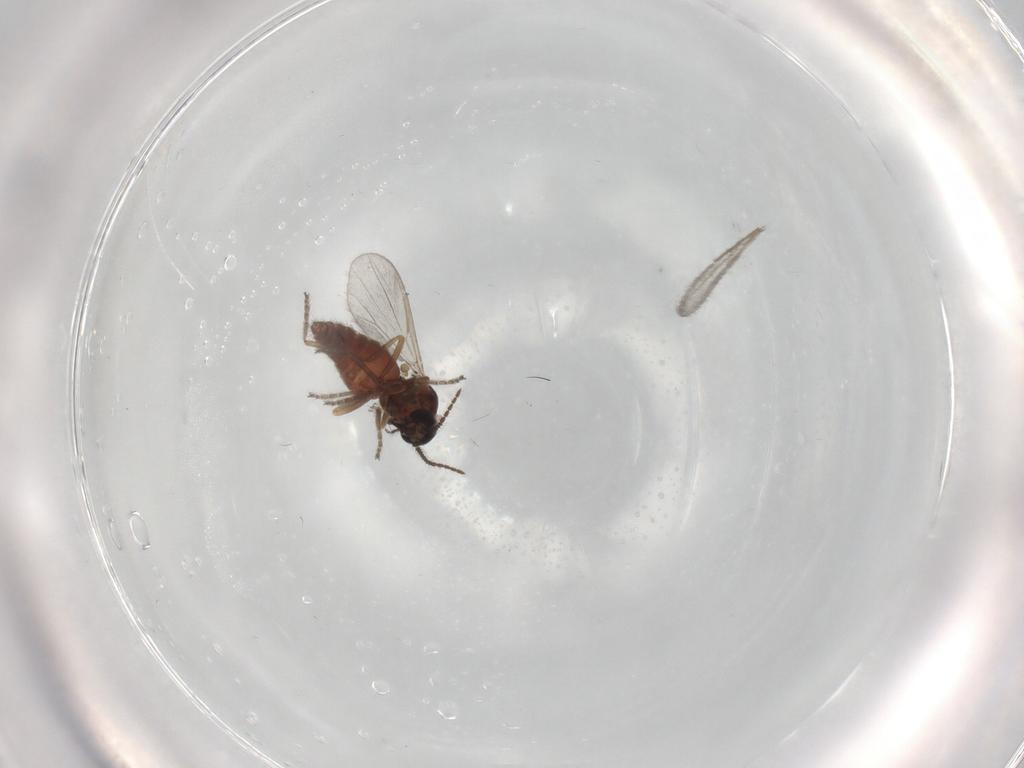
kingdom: Animalia
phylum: Arthropoda
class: Insecta
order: Diptera
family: Ceratopogonidae
